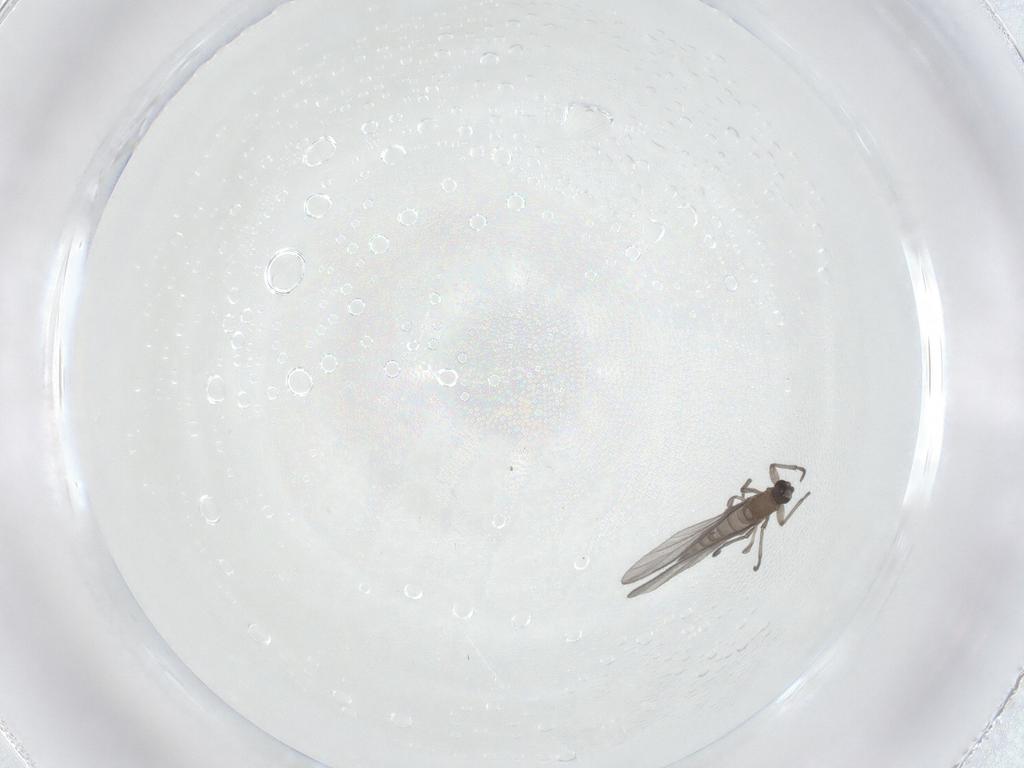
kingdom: Animalia
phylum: Arthropoda
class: Insecta
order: Diptera
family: Sciaridae
